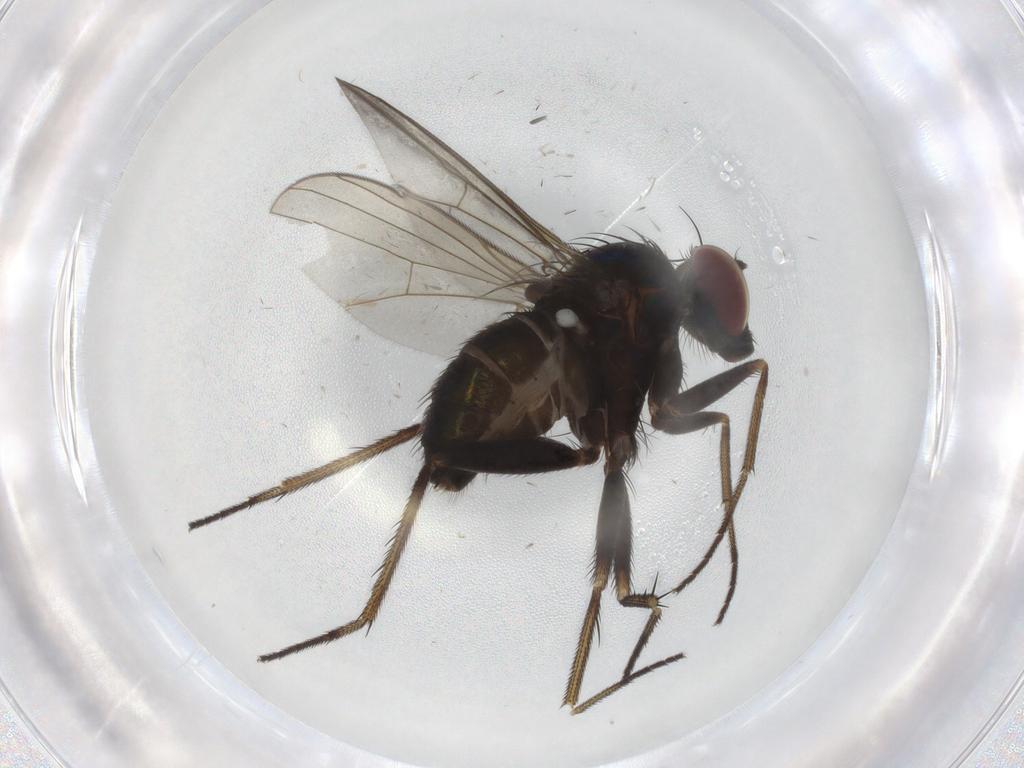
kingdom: Animalia
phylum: Arthropoda
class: Insecta
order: Diptera
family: Dolichopodidae
